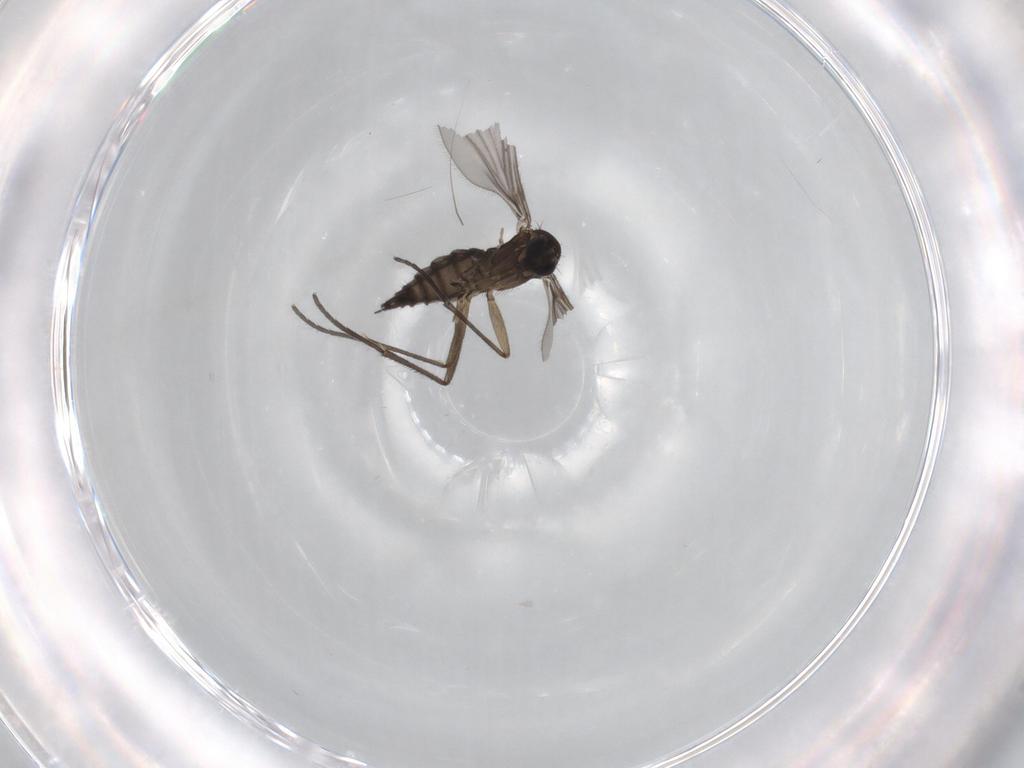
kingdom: Animalia
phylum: Arthropoda
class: Insecta
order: Diptera
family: Sciaridae
